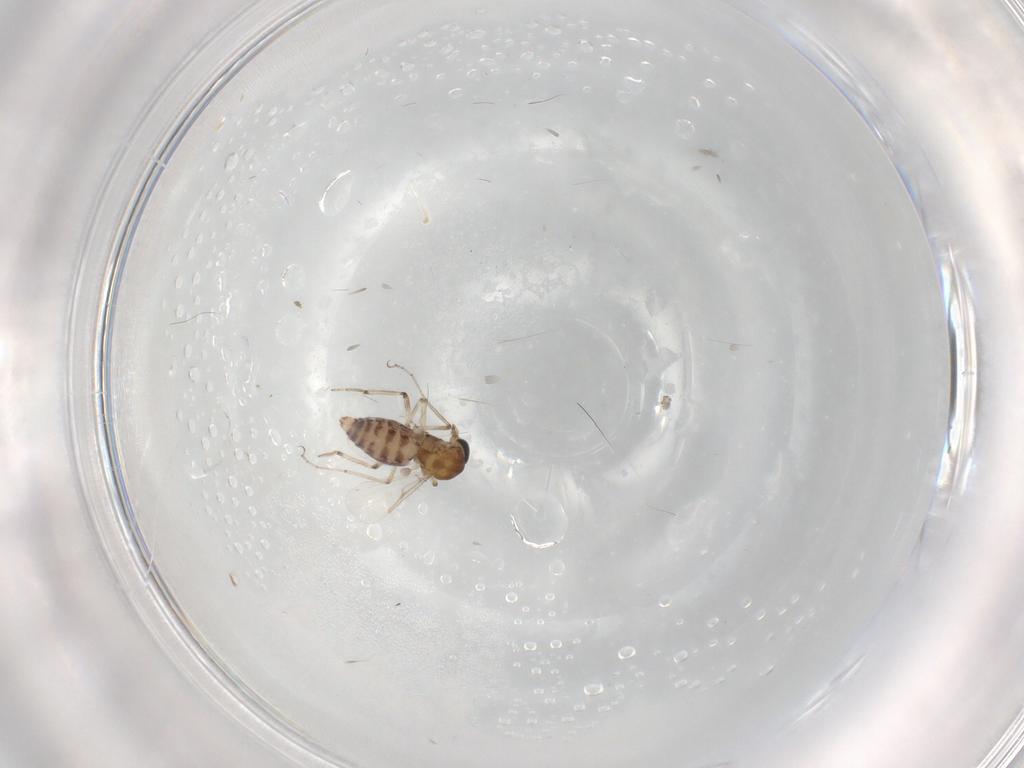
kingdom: Animalia
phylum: Arthropoda
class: Insecta
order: Diptera
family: Ceratopogonidae
